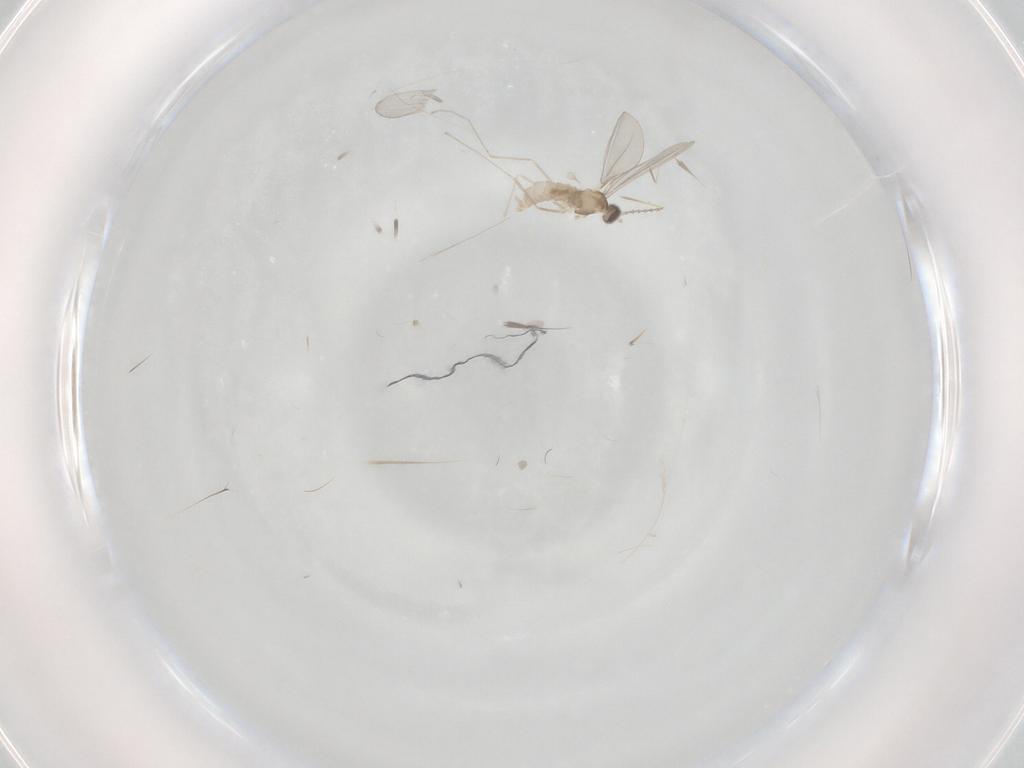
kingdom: Animalia
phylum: Arthropoda
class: Insecta
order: Diptera
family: Cecidomyiidae
